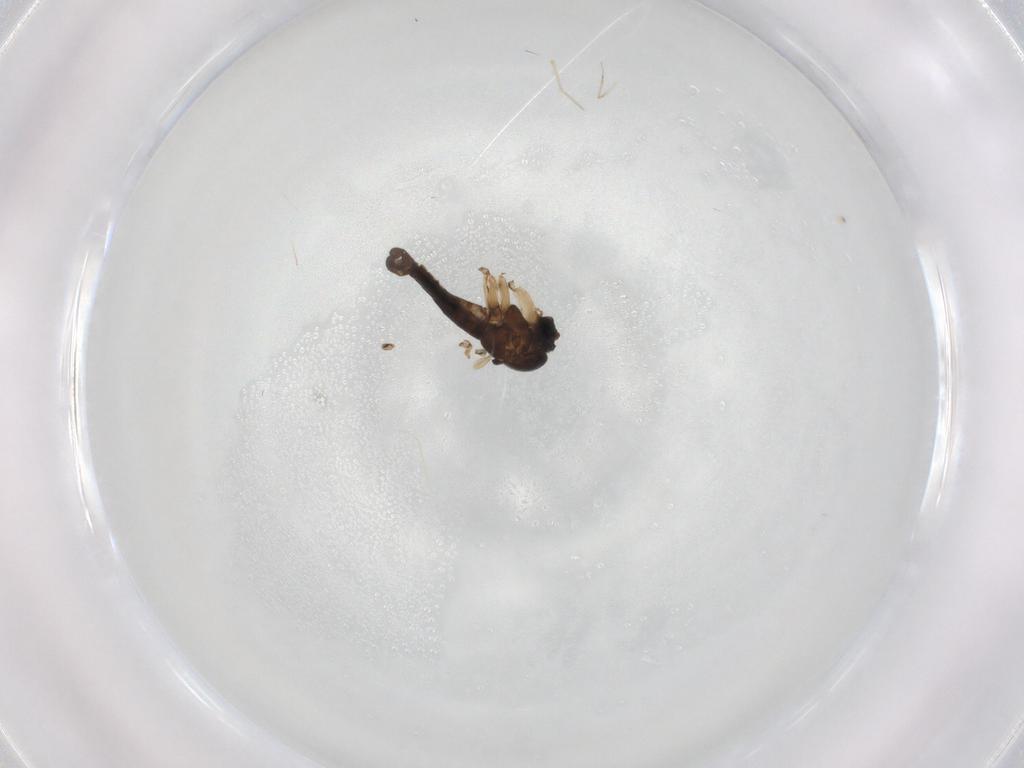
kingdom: Animalia
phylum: Arthropoda
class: Insecta
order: Diptera
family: Sciaridae
